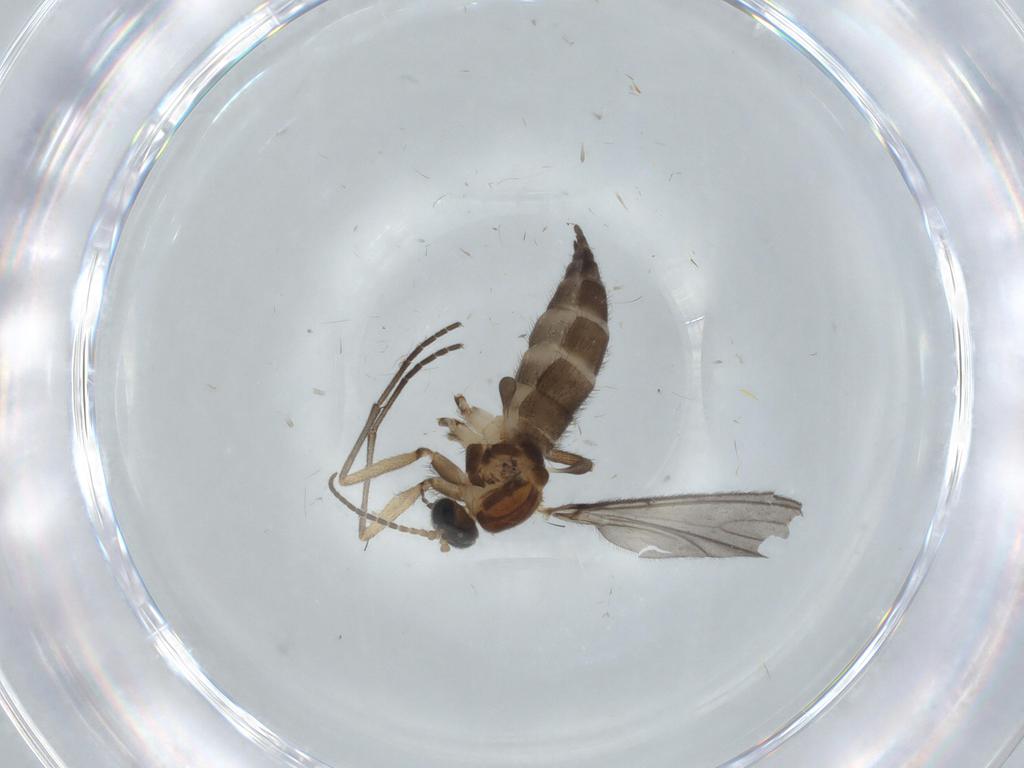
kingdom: Animalia
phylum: Arthropoda
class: Insecta
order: Diptera
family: Sciaridae
